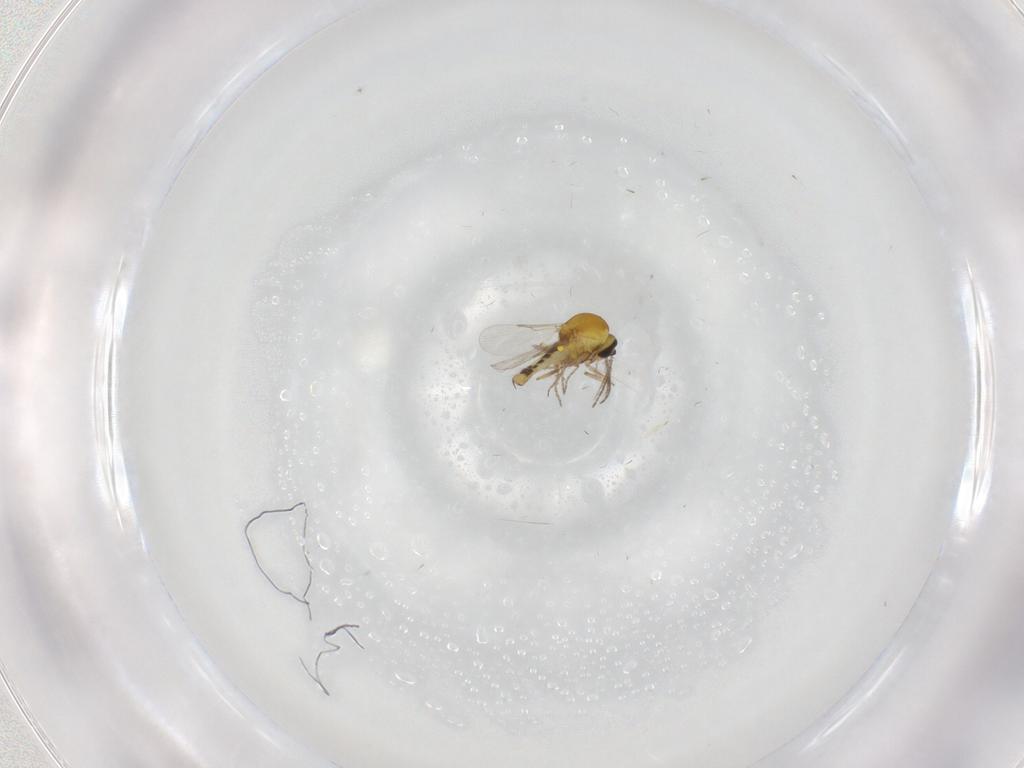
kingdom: Animalia
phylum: Arthropoda
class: Insecta
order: Diptera
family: Ceratopogonidae
